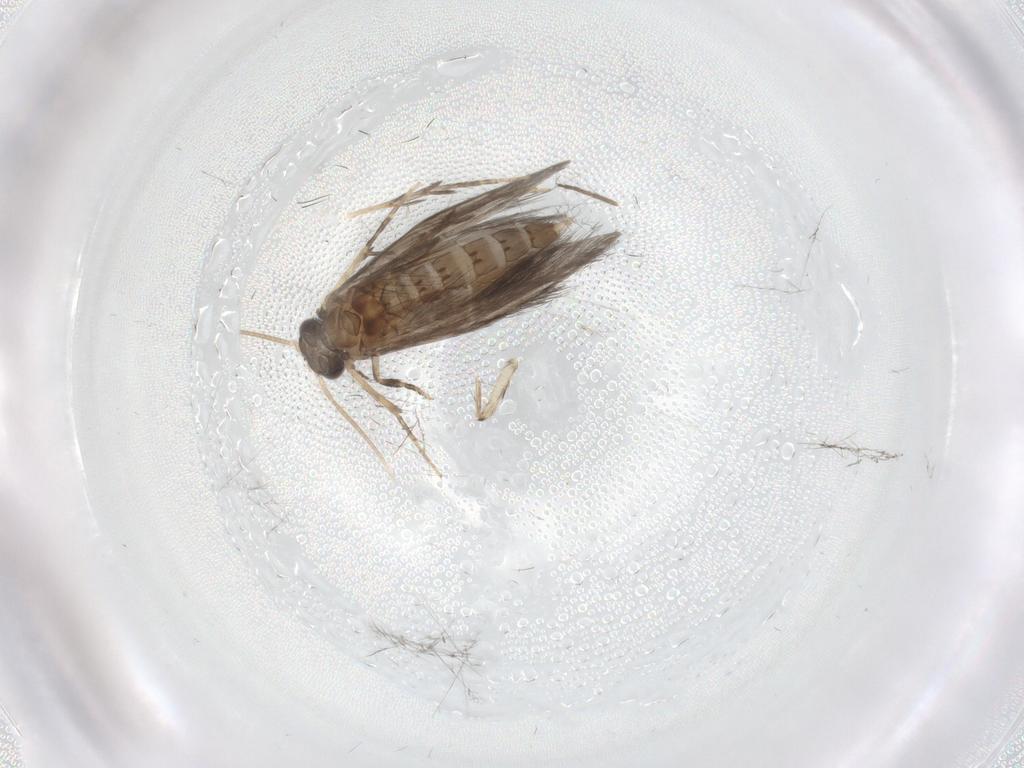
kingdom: Animalia
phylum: Arthropoda
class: Insecta
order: Trichoptera
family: Hydroptilidae
